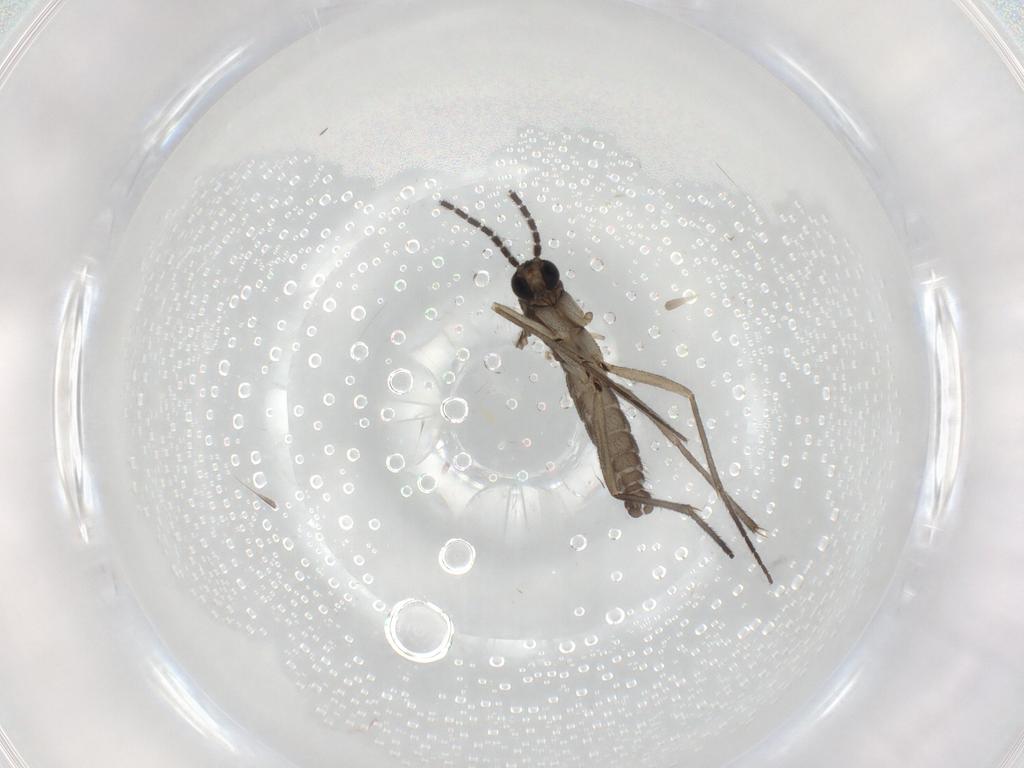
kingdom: Animalia
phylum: Arthropoda
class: Insecta
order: Diptera
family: Sciaridae
